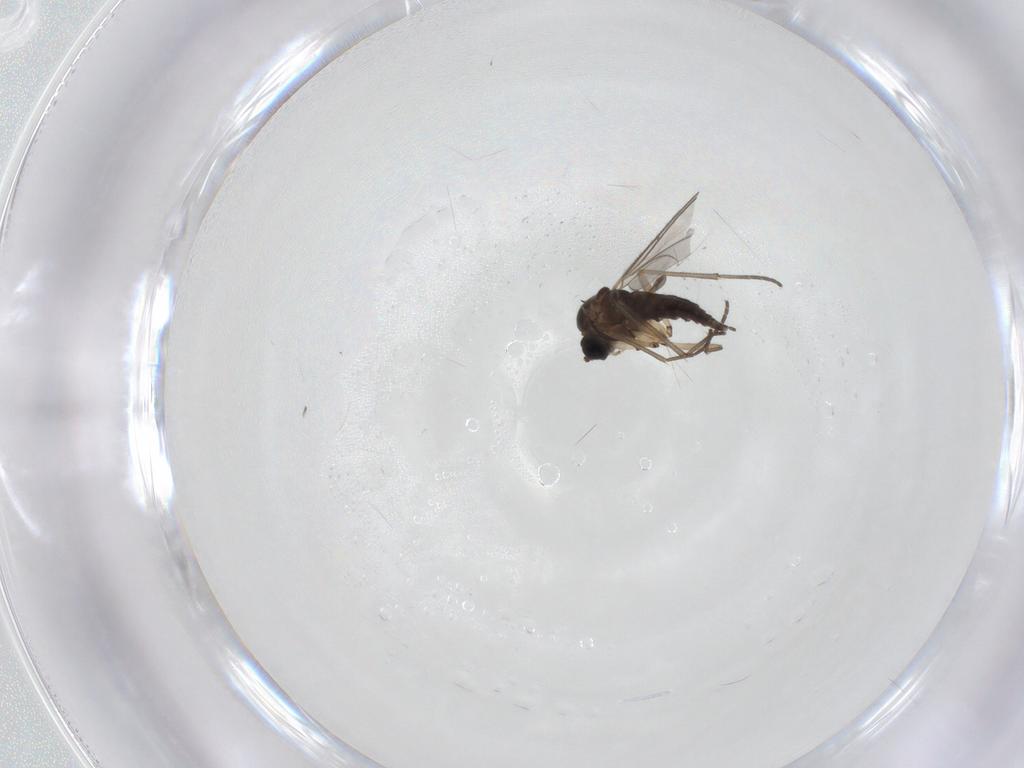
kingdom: Animalia
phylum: Arthropoda
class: Insecta
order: Diptera
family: Sciaridae
